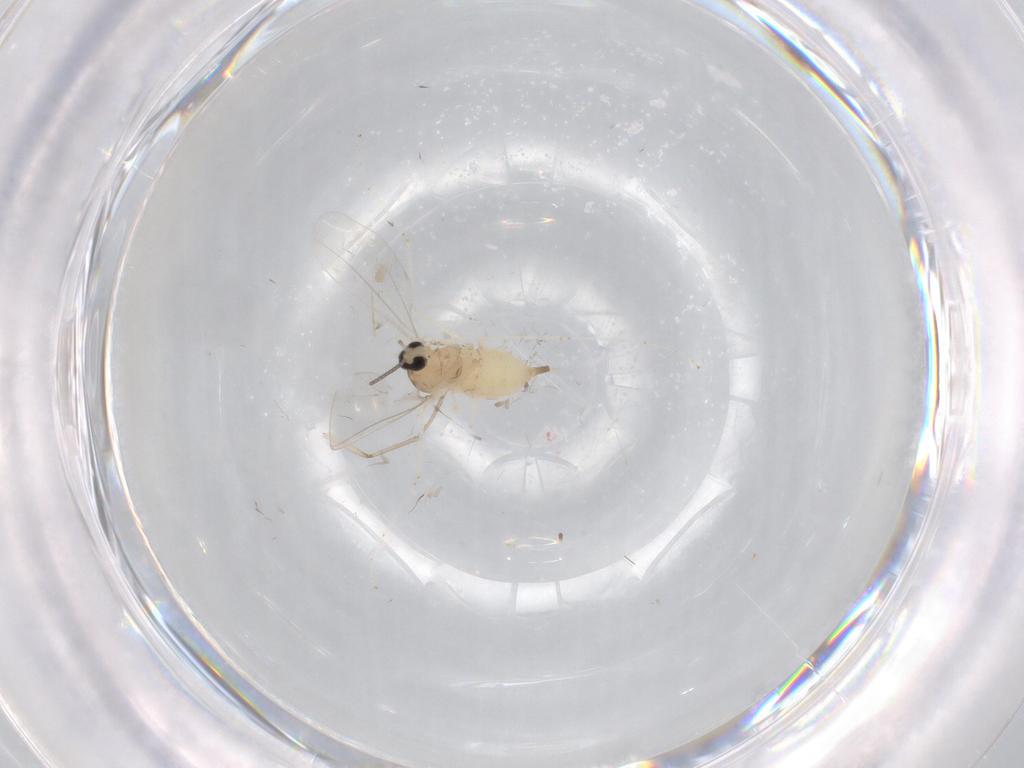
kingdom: Animalia
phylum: Arthropoda
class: Insecta
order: Diptera
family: Cecidomyiidae
